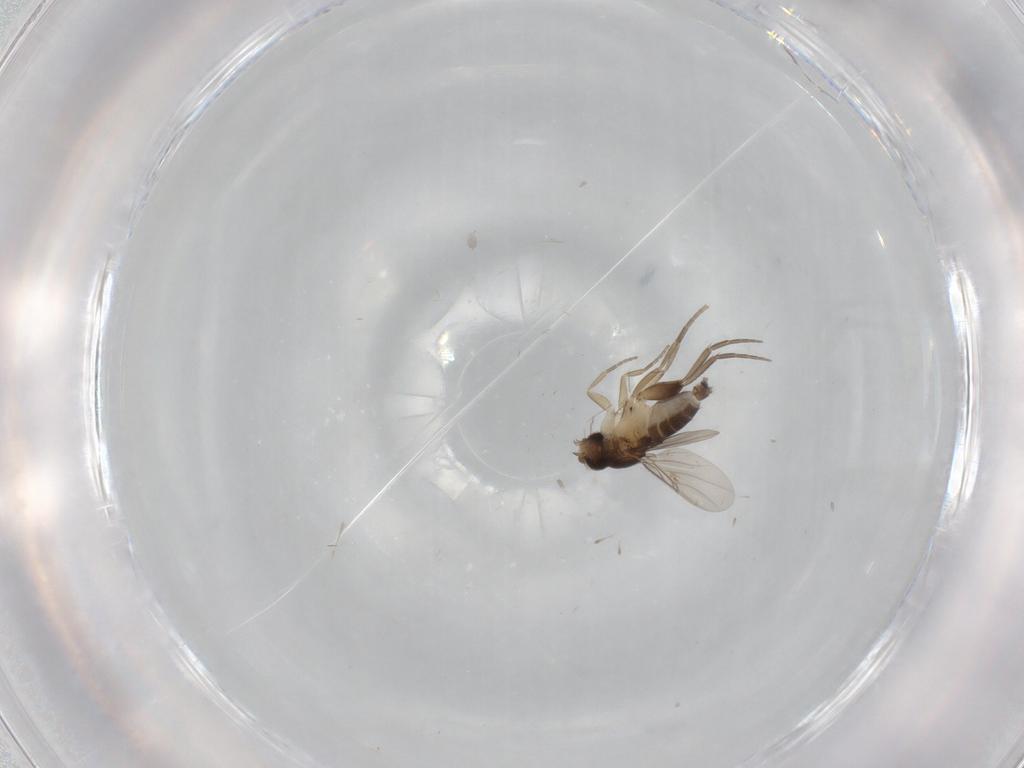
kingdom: Animalia
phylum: Arthropoda
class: Insecta
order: Diptera
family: Phoridae
